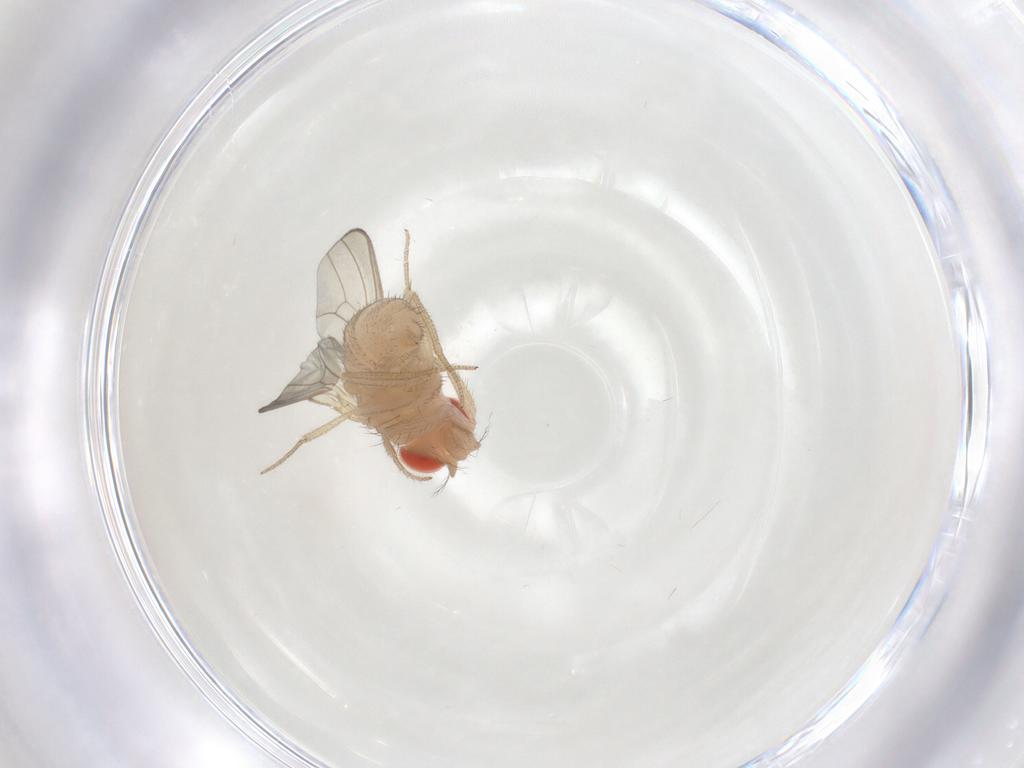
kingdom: Animalia
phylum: Arthropoda
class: Insecta
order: Diptera
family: Drosophilidae
